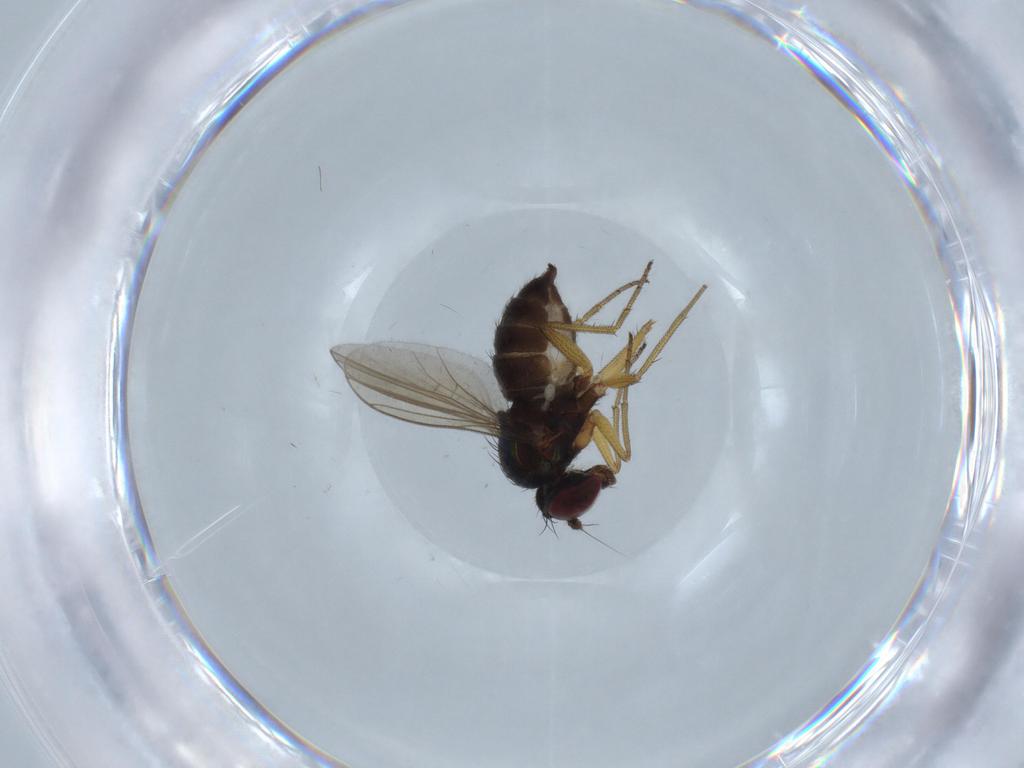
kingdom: Animalia
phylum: Arthropoda
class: Insecta
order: Diptera
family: Dolichopodidae
